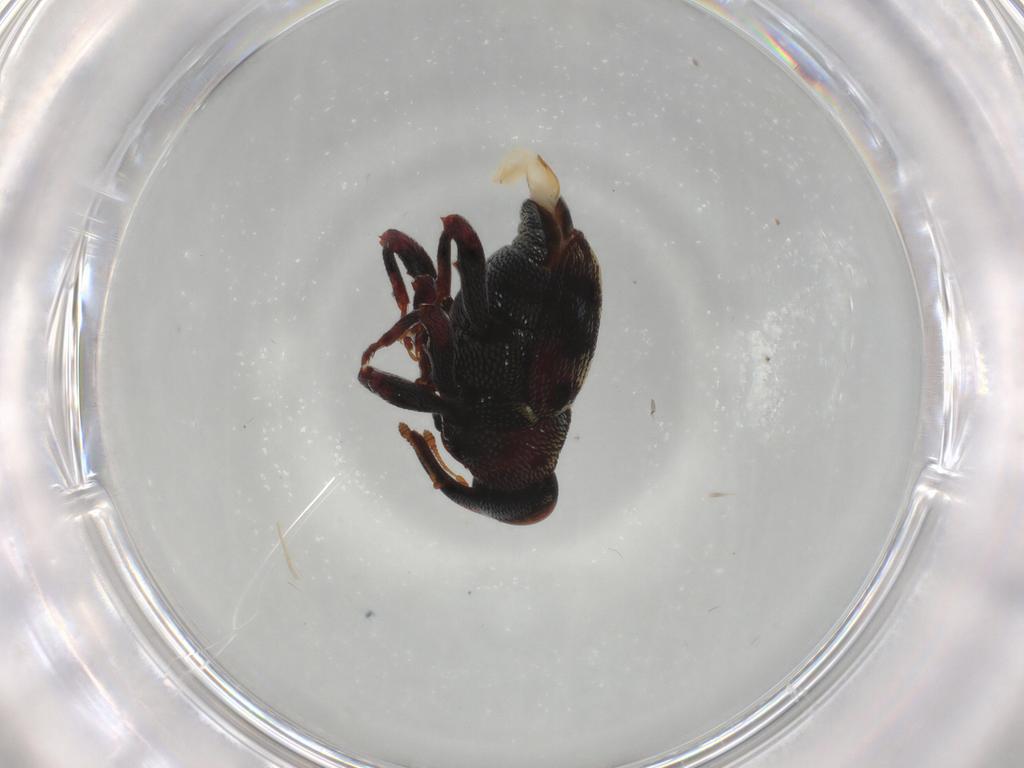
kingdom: Animalia
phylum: Arthropoda
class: Insecta
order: Coleoptera
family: Curculionidae
